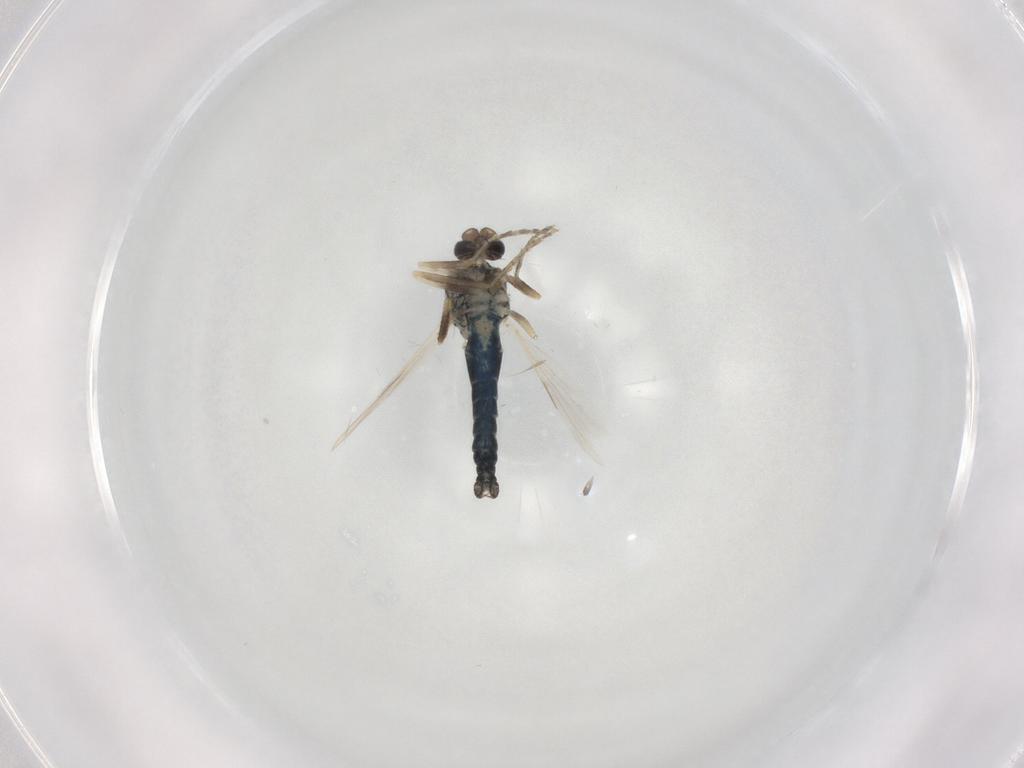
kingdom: Animalia
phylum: Arthropoda
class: Insecta
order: Diptera
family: Ceratopogonidae
